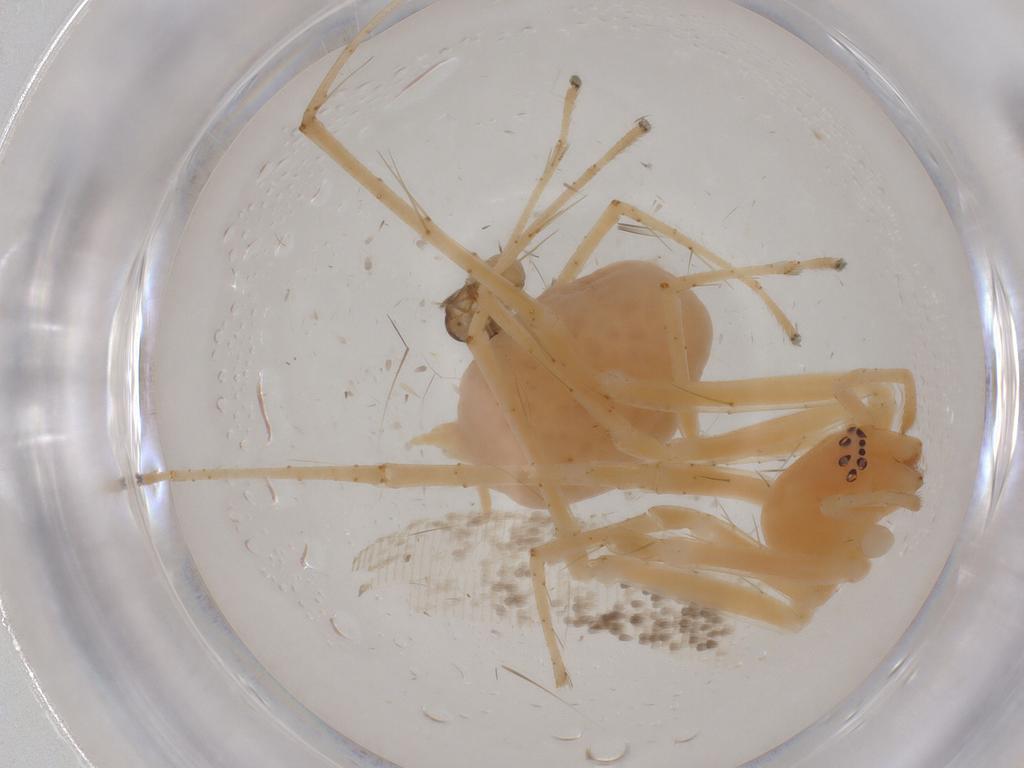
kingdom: Animalia
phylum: Arthropoda
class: Arachnida
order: Araneae
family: Anyphaenidae
